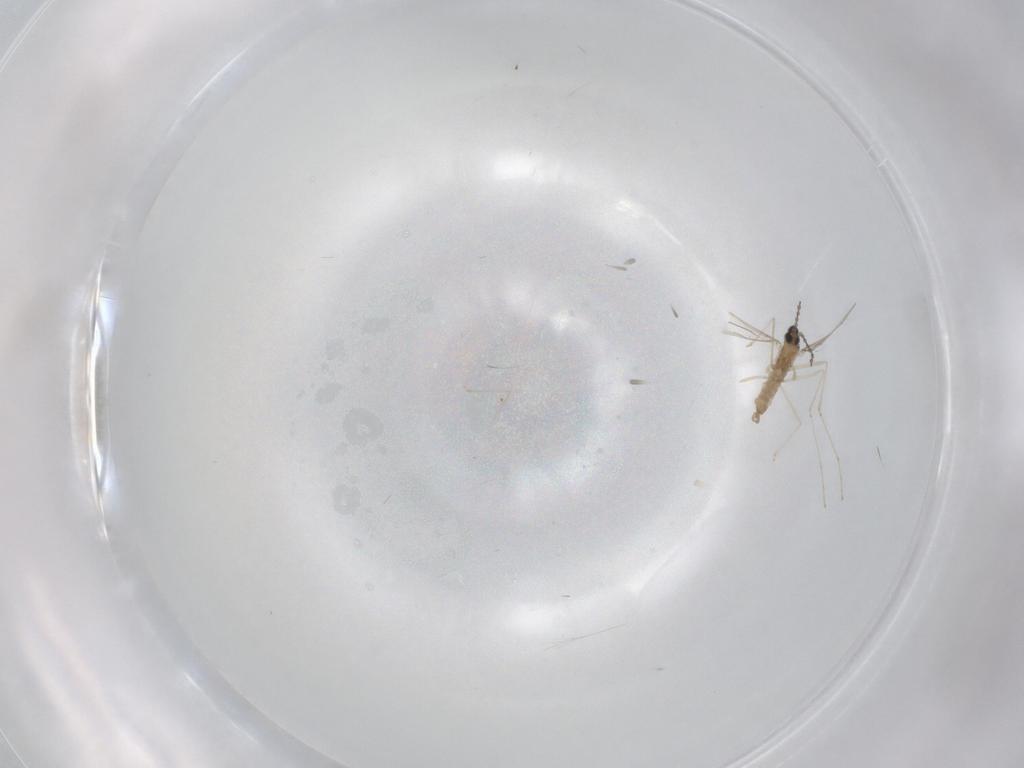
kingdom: Animalia
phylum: Arthropoda
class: Insecta
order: Diptera
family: Cecidomyiidae
